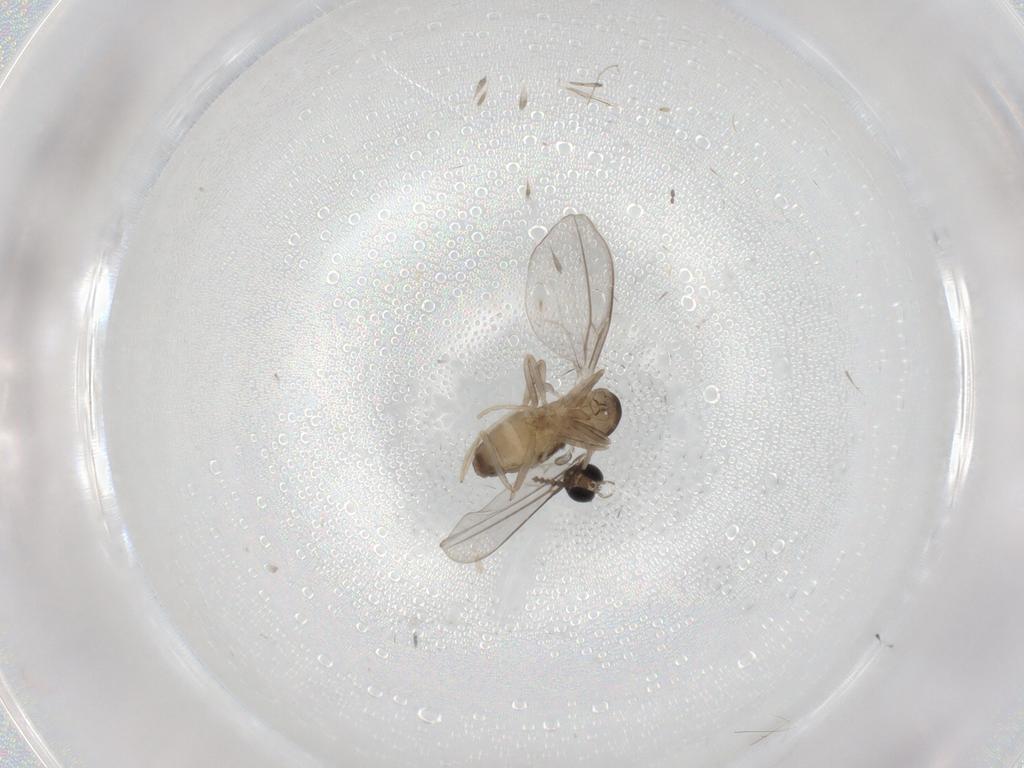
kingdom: Animalia
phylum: Arthropoda
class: Insecta
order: Diptera
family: Cecidomyiidae
